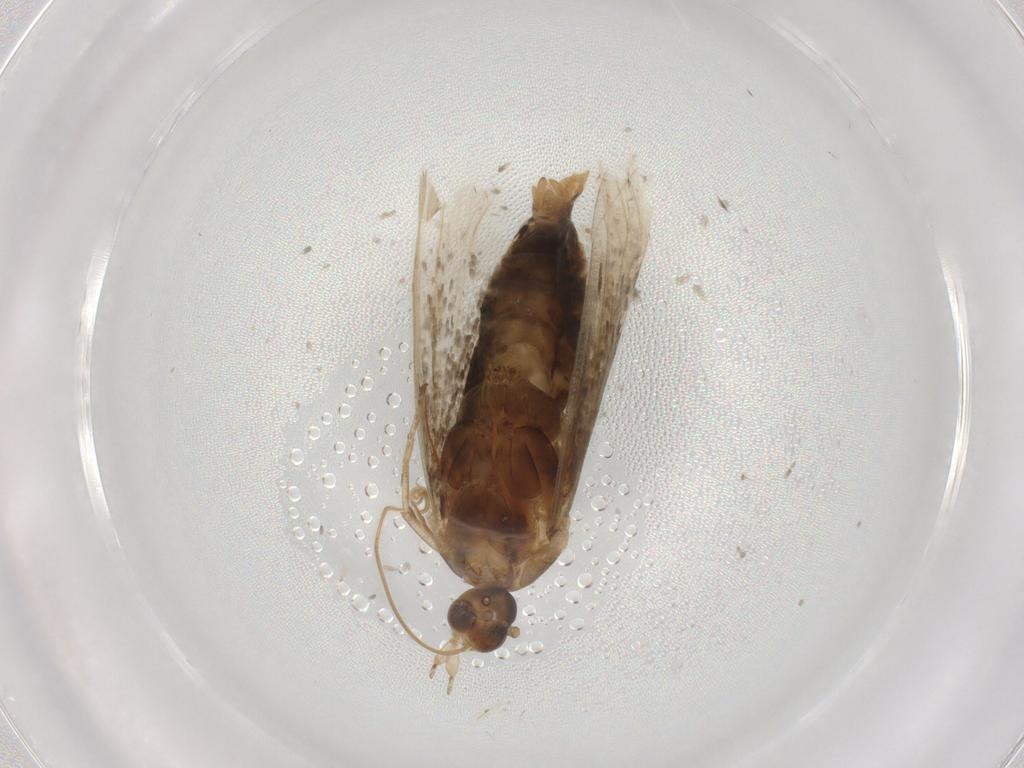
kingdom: Animalia
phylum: Arthropoda
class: Insecta
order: Lepidoptera
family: Choreutidae
